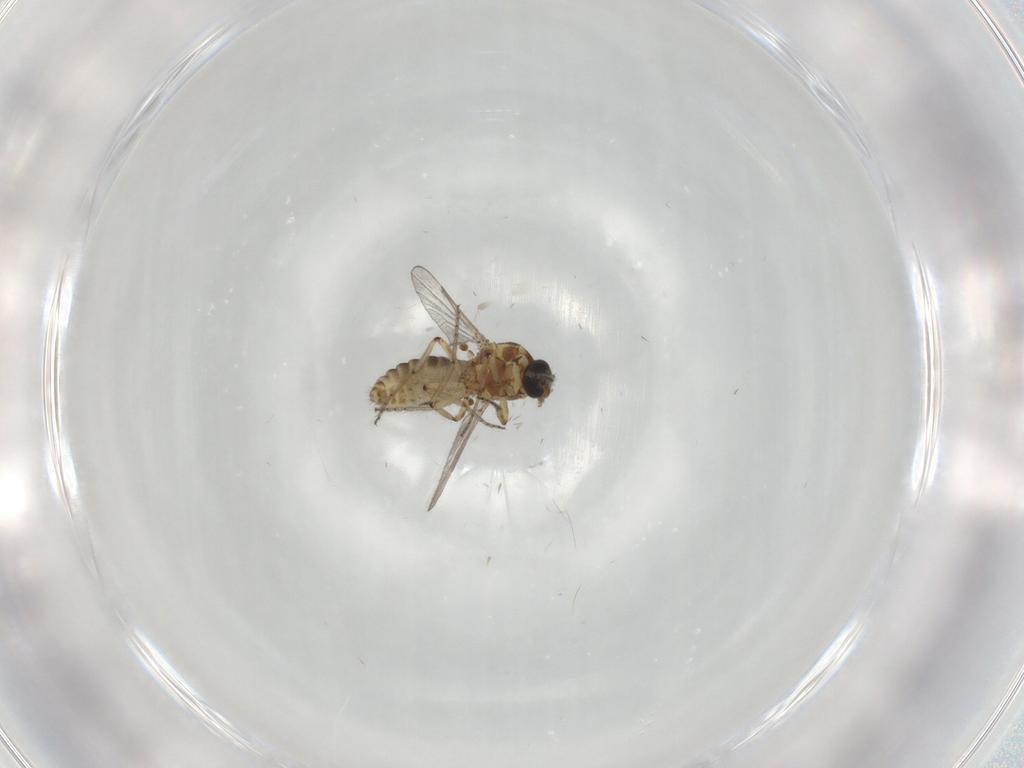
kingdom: Animalia
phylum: Arthropoda
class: Insecta
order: Diptera
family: Ceratopogonidae
